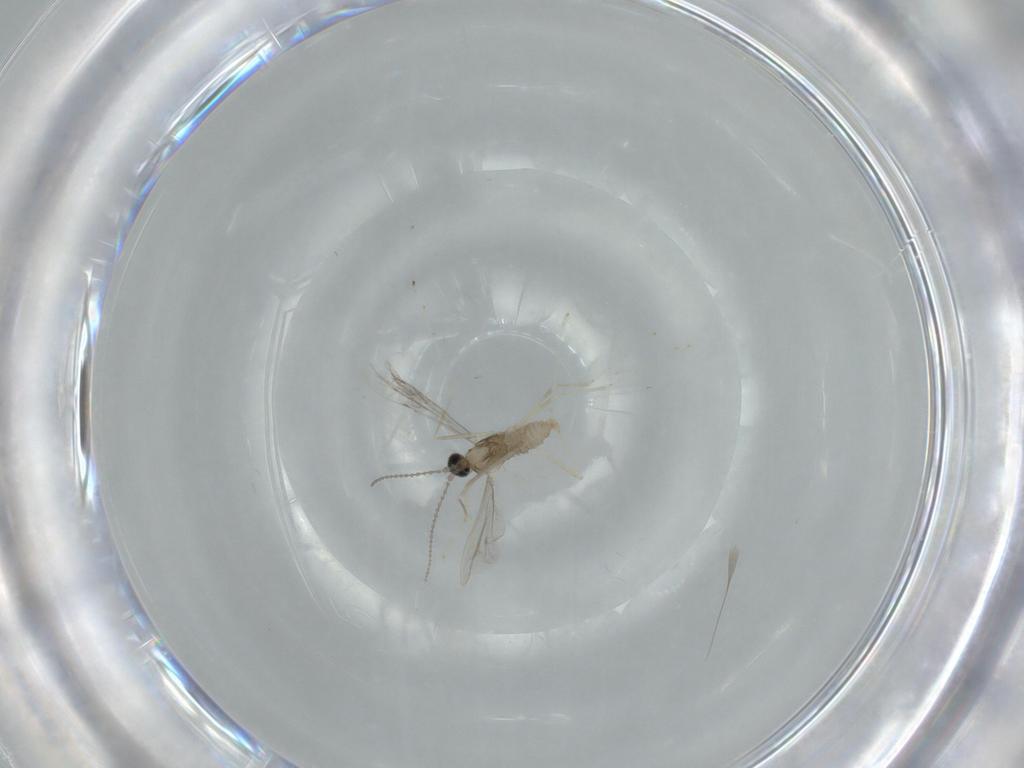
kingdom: Animalia
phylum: Arthropoda
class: Insecta
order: Diptera
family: Cecidomyiidae
